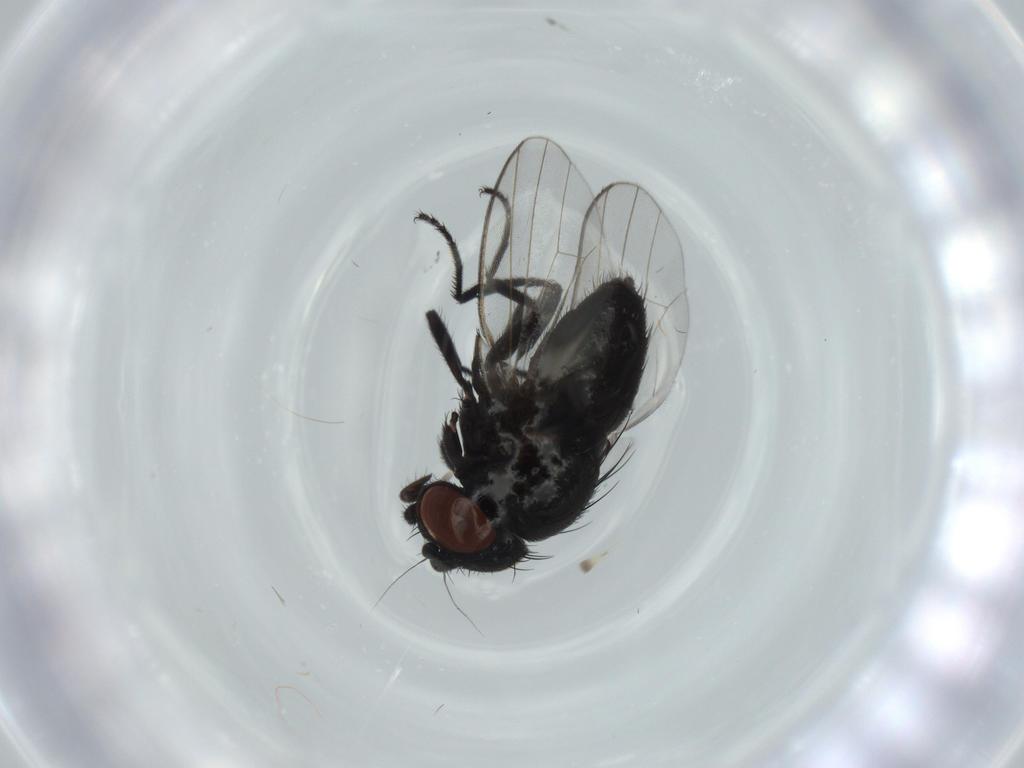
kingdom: Animalia
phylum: Arthropoda
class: Insecta
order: Diptera
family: Milichiidae
